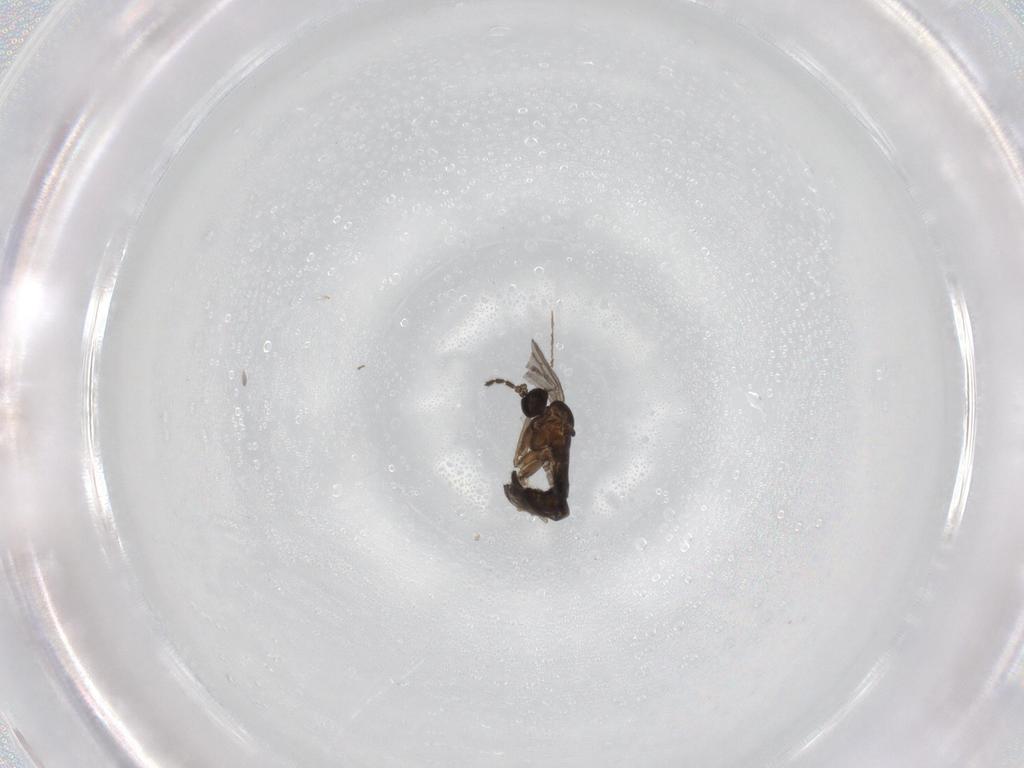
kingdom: Animalia
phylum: Arthropoda
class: Insecta
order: Diptera
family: Sciaridae
